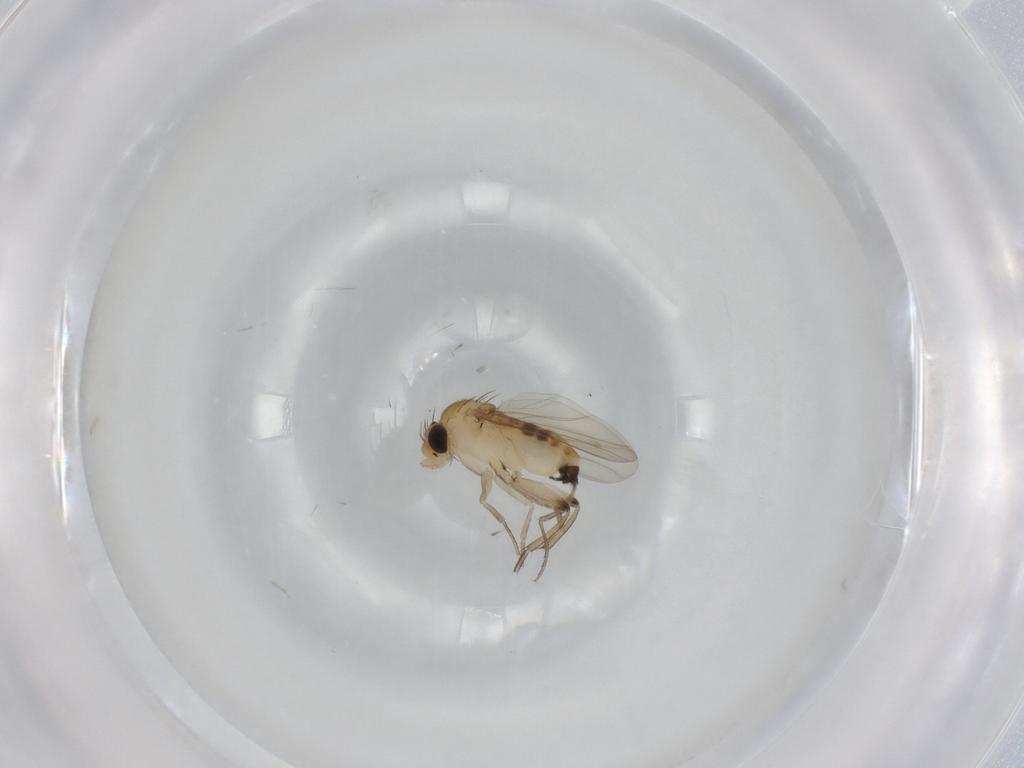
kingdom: Animalia
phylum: Arthropoda
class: Insecta
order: Diptera
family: Phoridae
